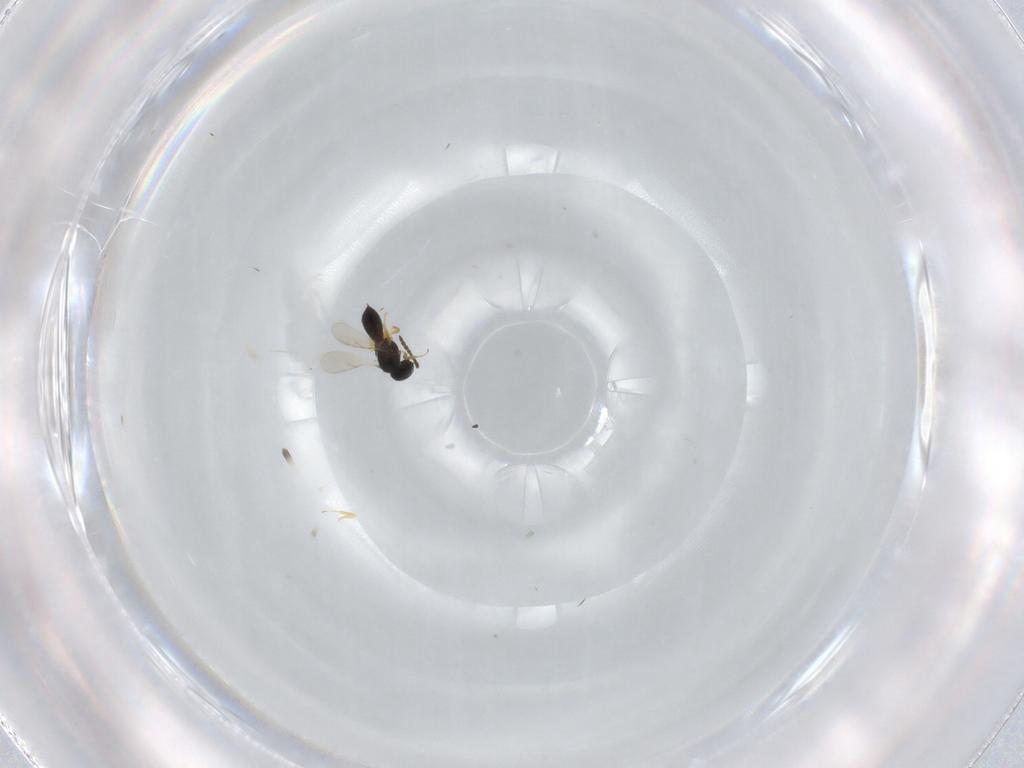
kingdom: Animalia
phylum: Arthropoda
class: Insecta
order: Hymenoptera
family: Scelionidae
